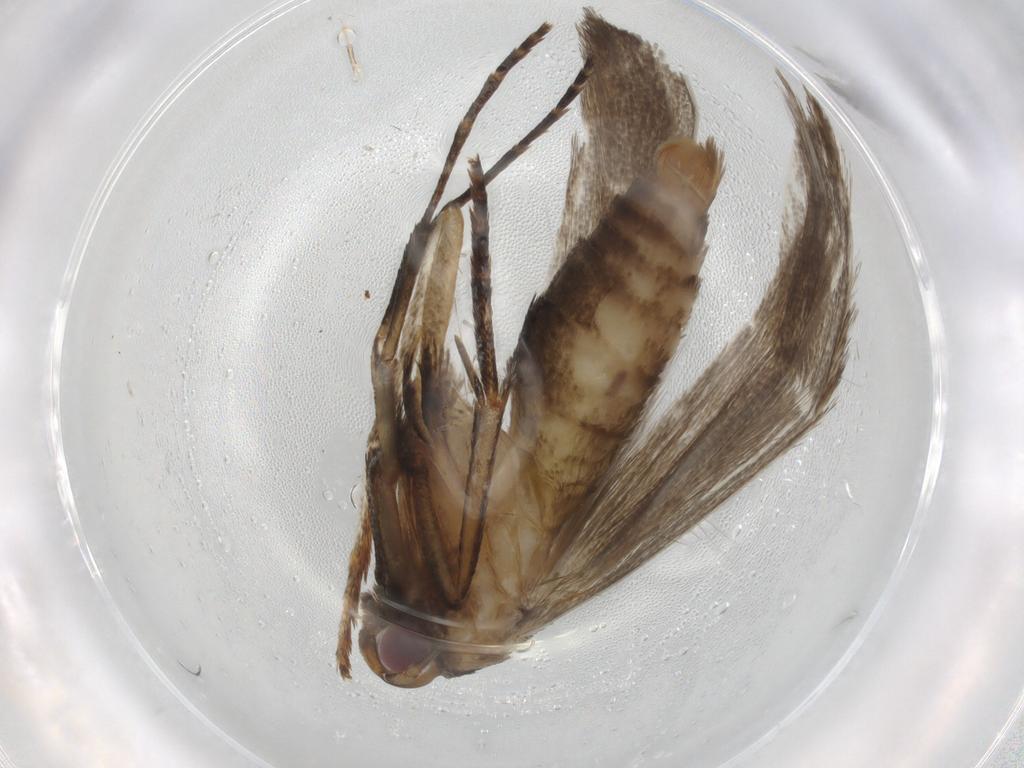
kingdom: Animalia
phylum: Arthropoda
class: Insecta
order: Lepidoptera
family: Epermeniidae
